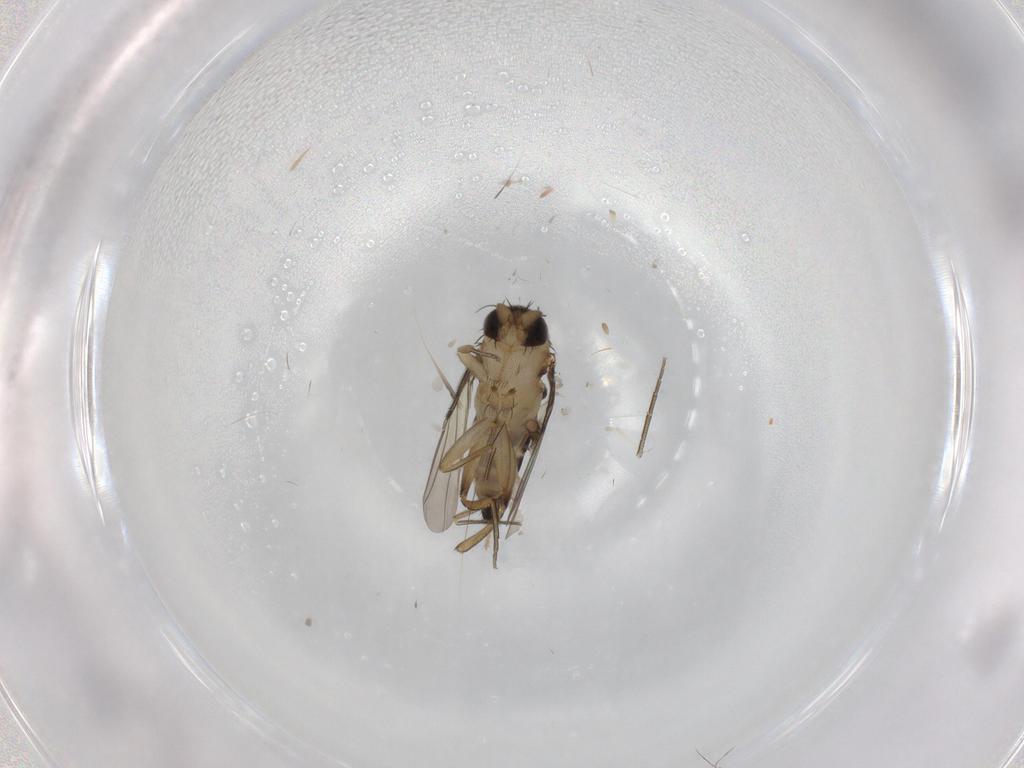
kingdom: Animalia
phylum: Arthropoda
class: Insecta
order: Diptera
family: Phoridae
